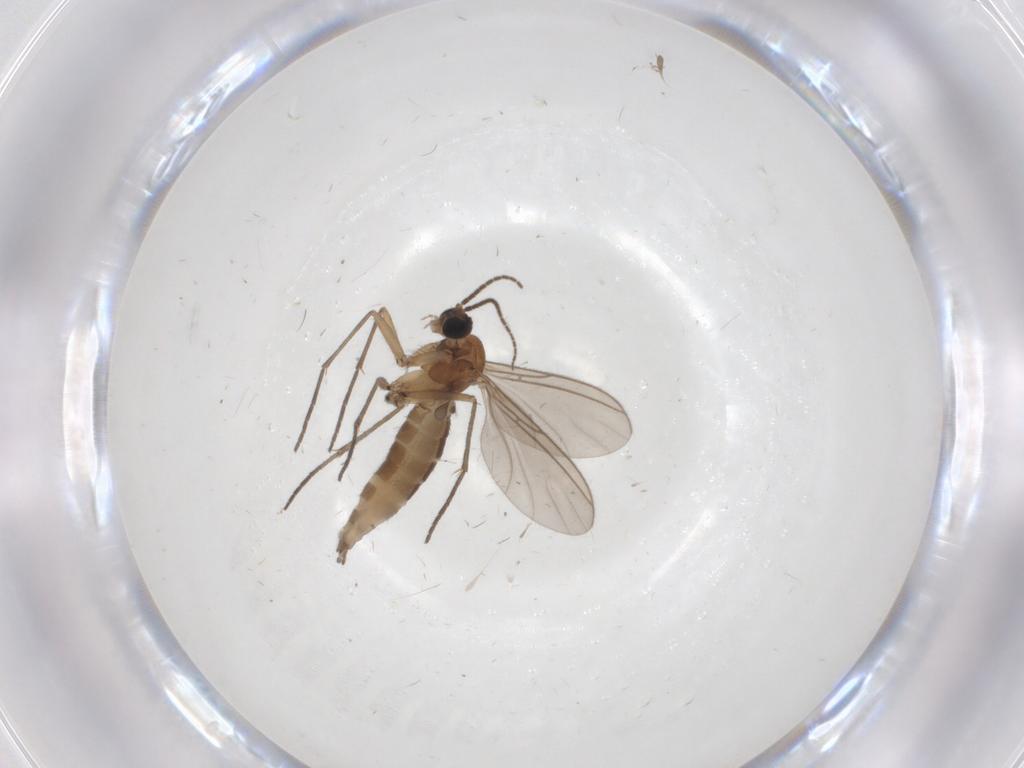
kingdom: Animalia
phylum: Arthropoda
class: Insecta
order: Diptera
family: Sciaridae
